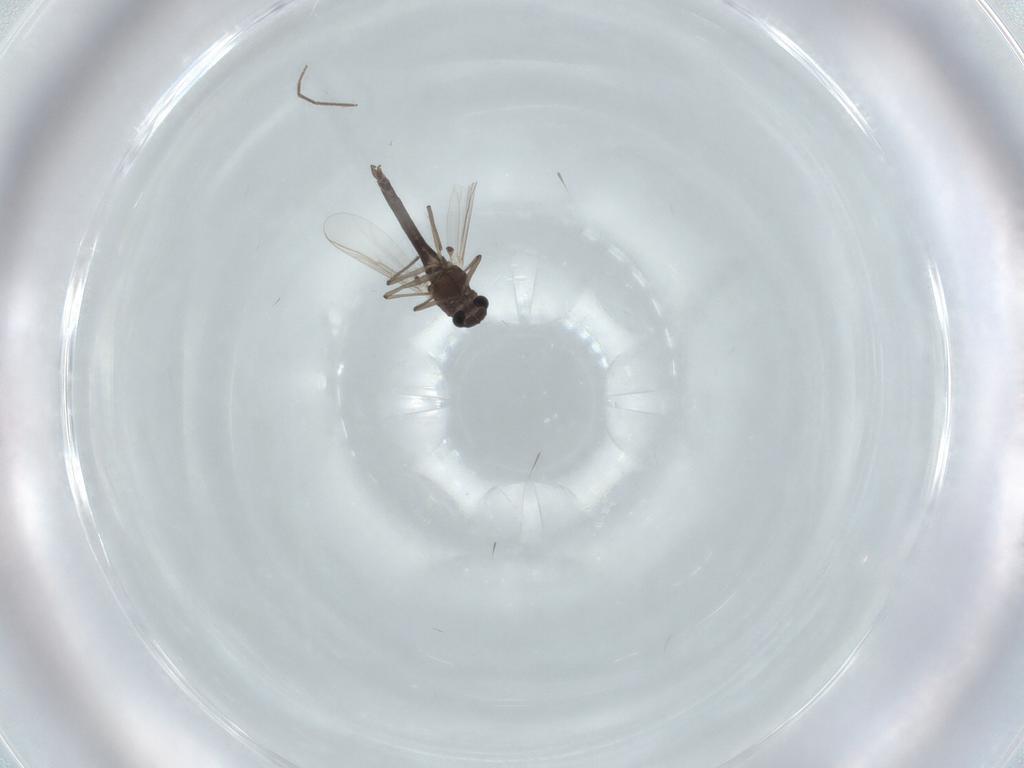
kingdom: Animalia
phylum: Arthropoda
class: Insecta
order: Diptera
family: Chironomidae
